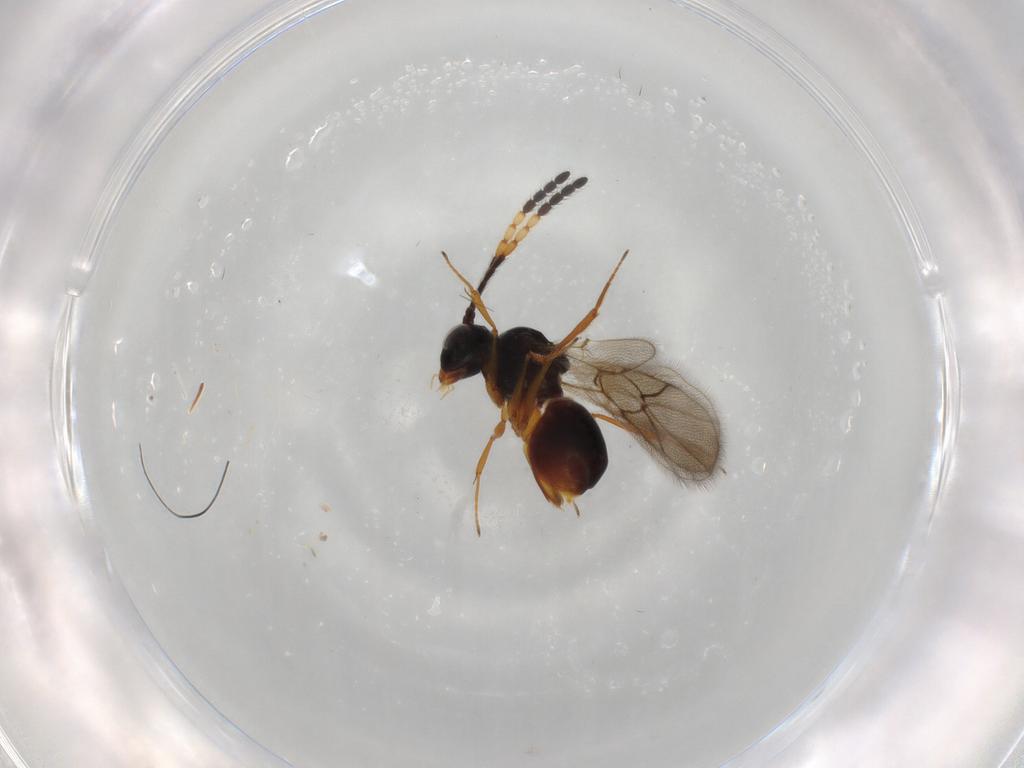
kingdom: Animalia
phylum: Arthropoda
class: Insecta
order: Hymenoptera
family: Figitidae
